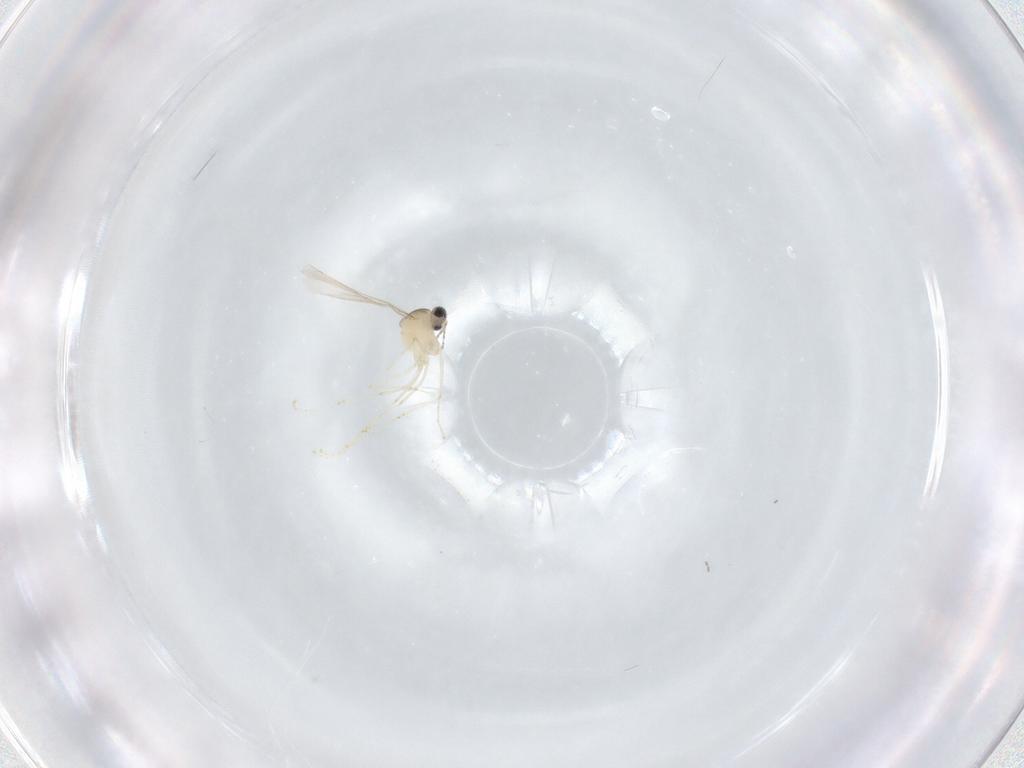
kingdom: Animalia
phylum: Arthropoda
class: Insecta
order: Diptera
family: Cecidomyiidae
